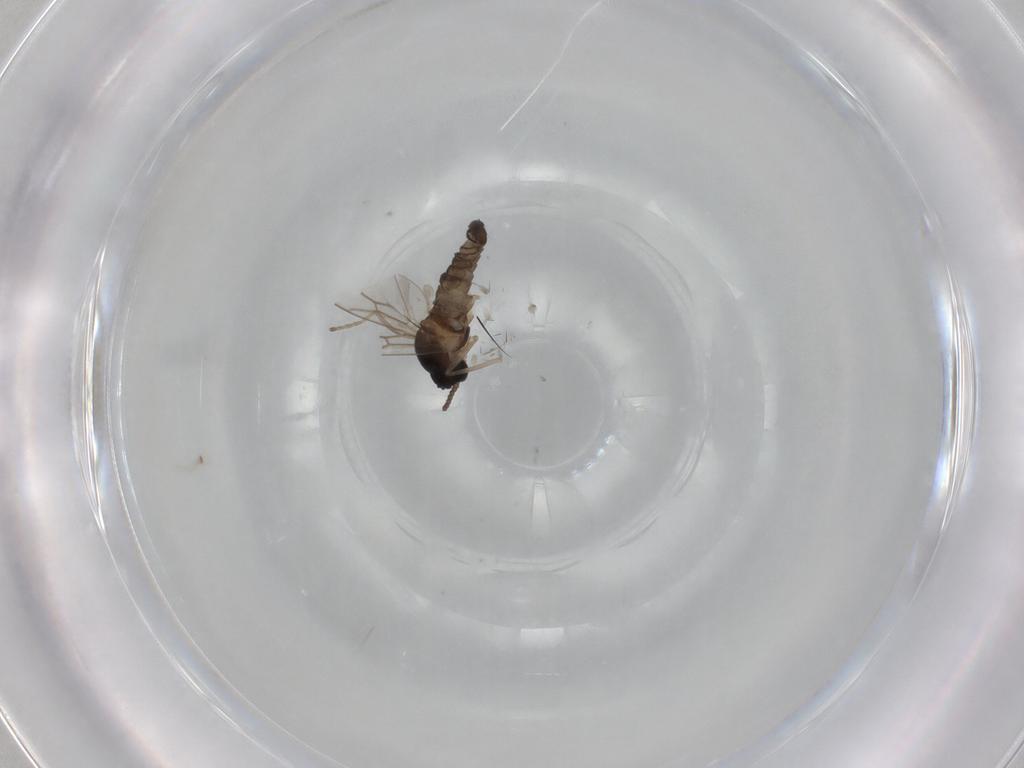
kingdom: Animalia
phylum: Arthropoda
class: Insecta
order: Diptera
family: Cecidomyiidae
